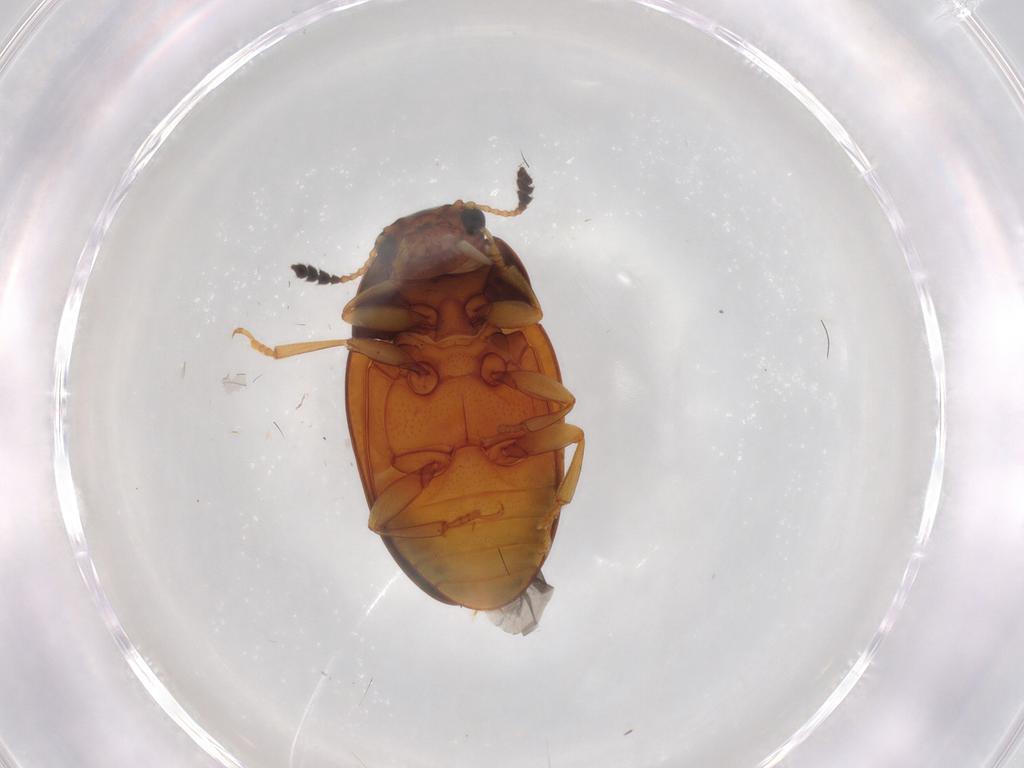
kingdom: Animalia
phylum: Arthropoda
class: Insecta
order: Coleoptera
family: Erotylidae
